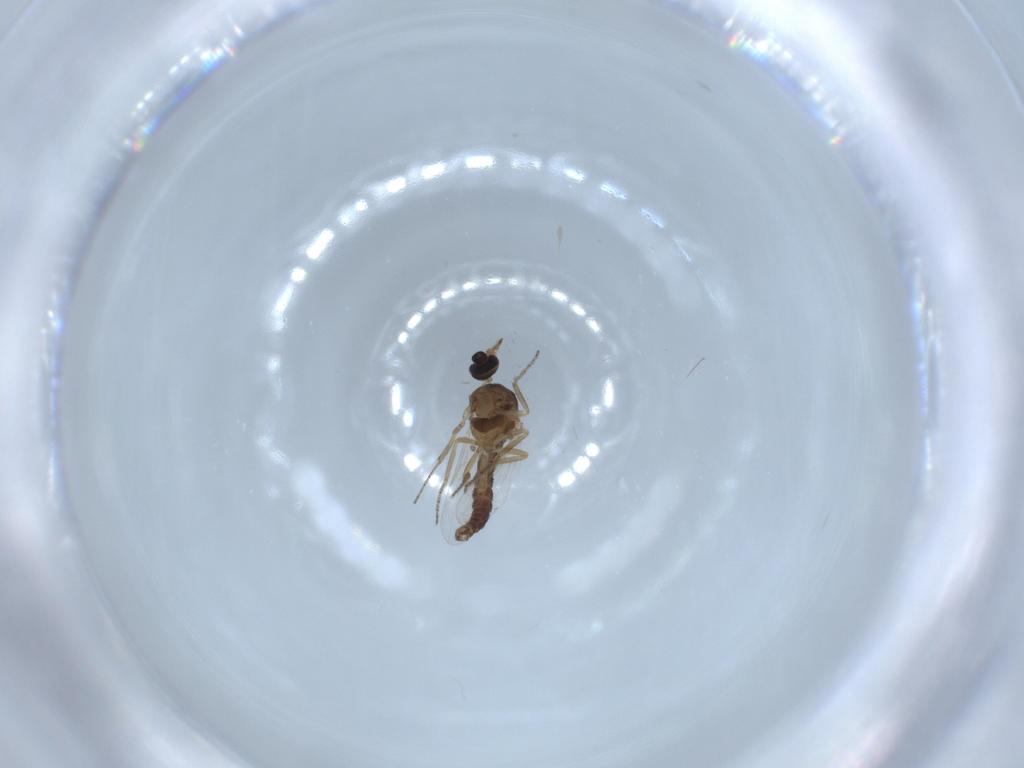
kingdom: Animalia
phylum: Arthropoda
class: Insecta
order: Diptera
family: Ceratopogonidae
